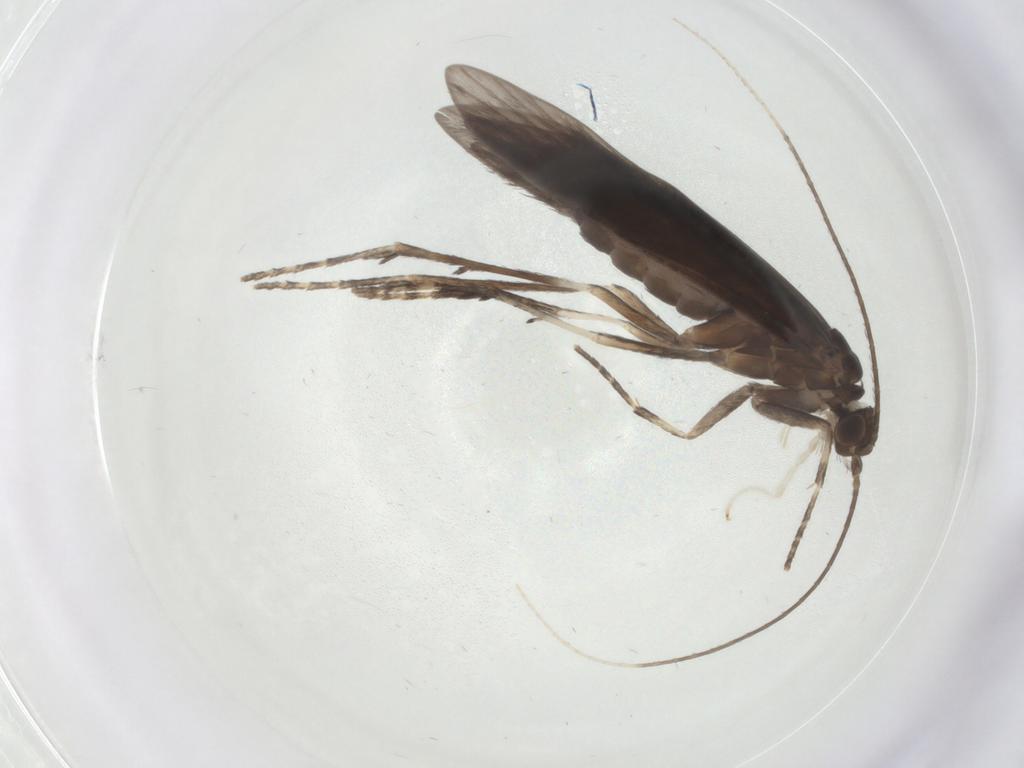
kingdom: Animalia
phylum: Arthropoda
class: Insecta
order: Trichoptera
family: Xiphocentronidae
